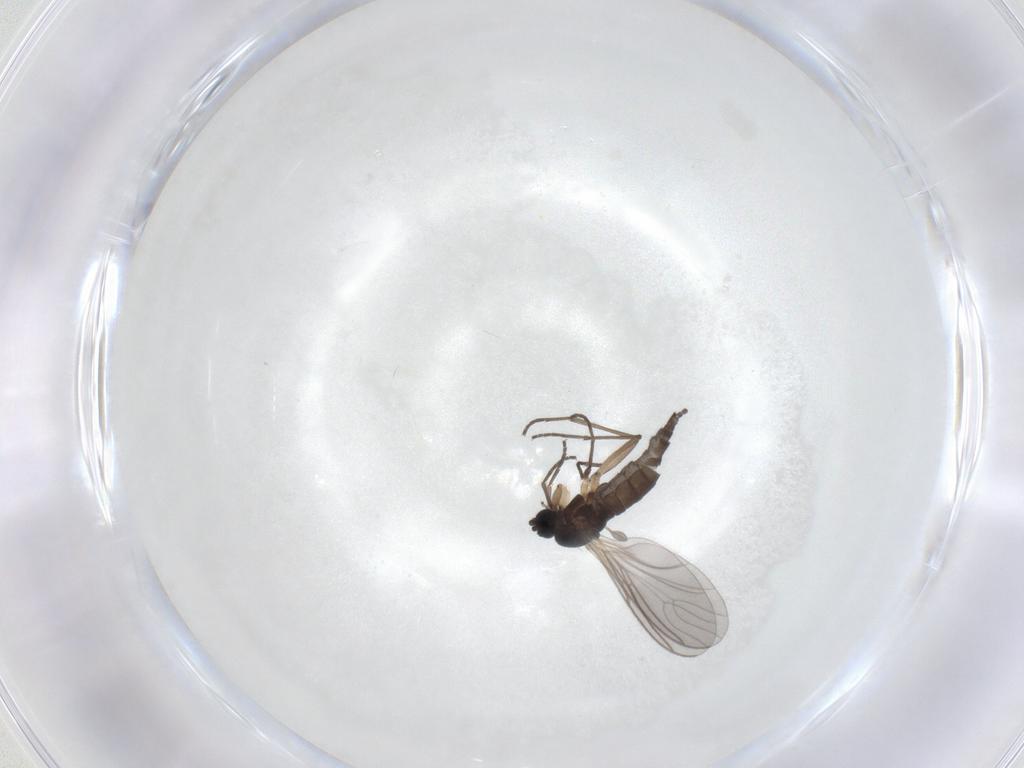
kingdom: Animalia
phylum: Arthropoda
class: Insecta
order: Diptera
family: Sciaridae
